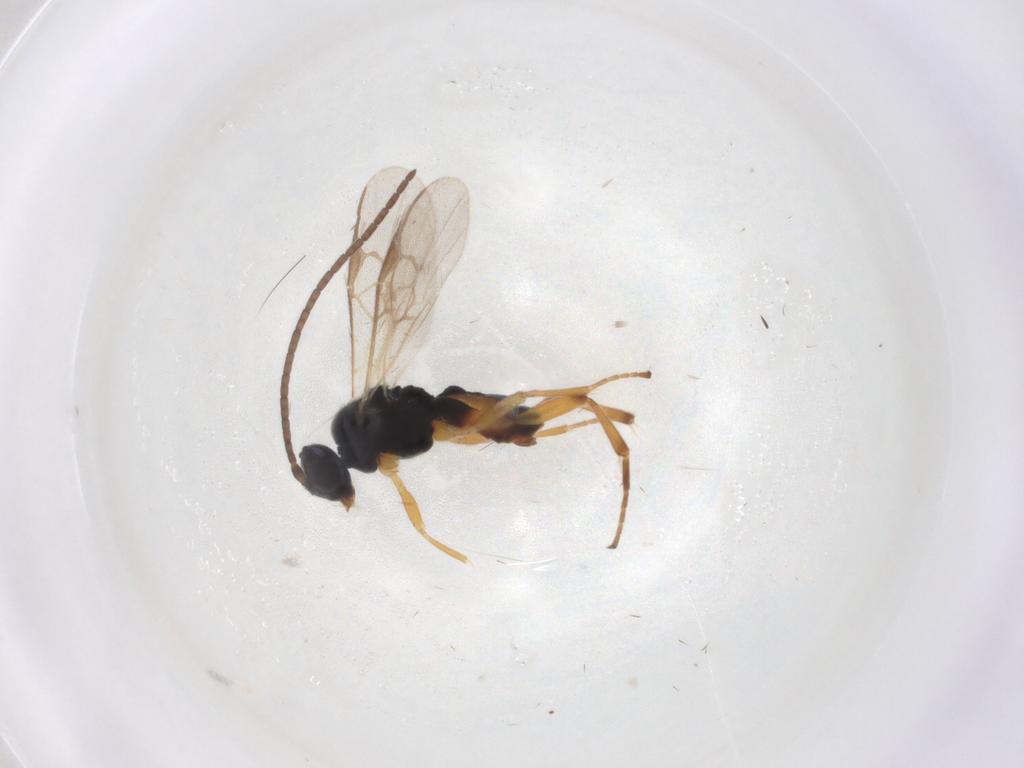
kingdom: Animalia
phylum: Arthropoda
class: Insecta
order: Hymenoptera
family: Braconidae
